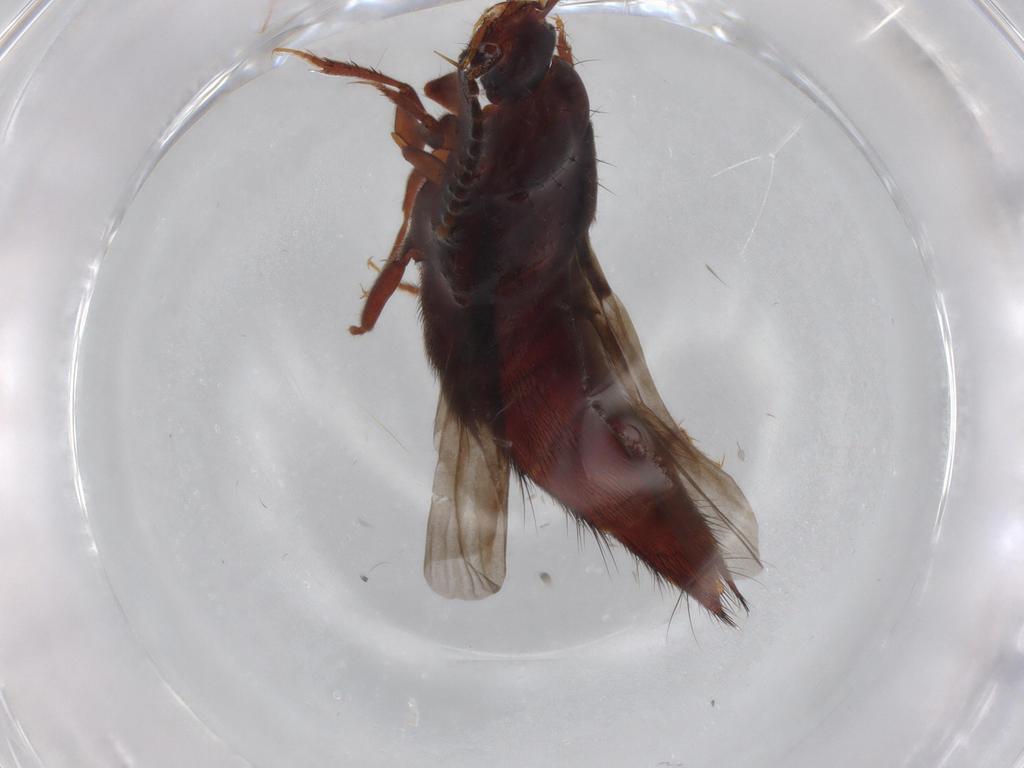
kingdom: Animalia
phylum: Arthropoda
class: Insecta
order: Coleoptera
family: Staphylinidae
